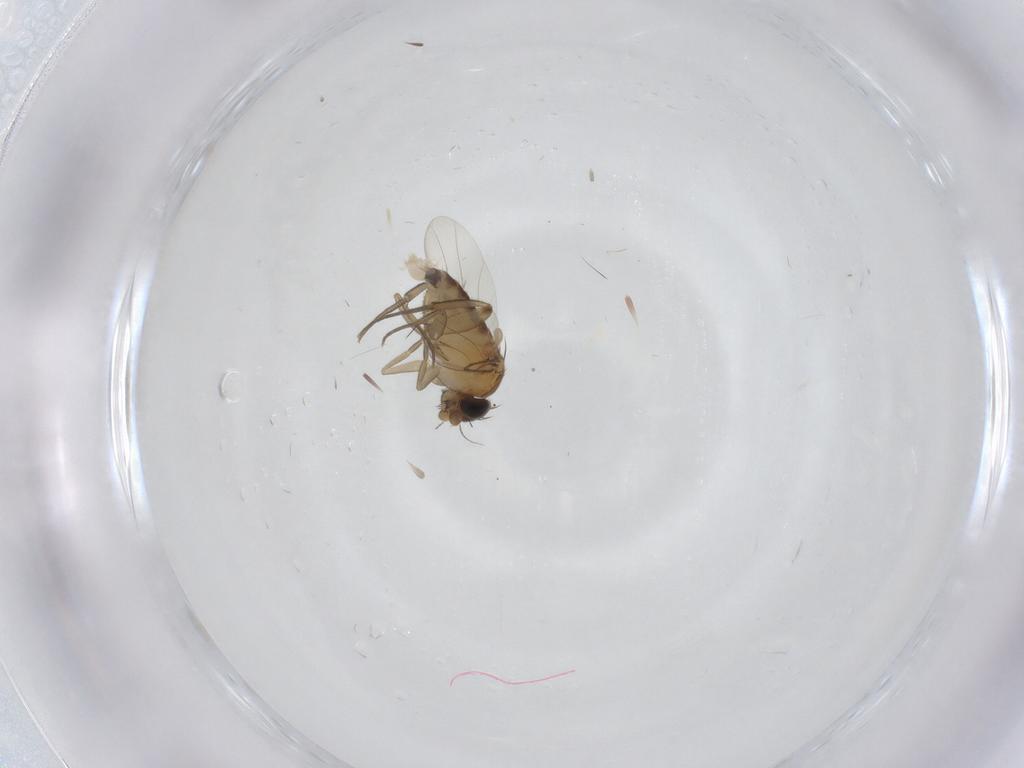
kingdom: Animalia
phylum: Arthropoda
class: Insecta
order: Diptera
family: Phoridae
